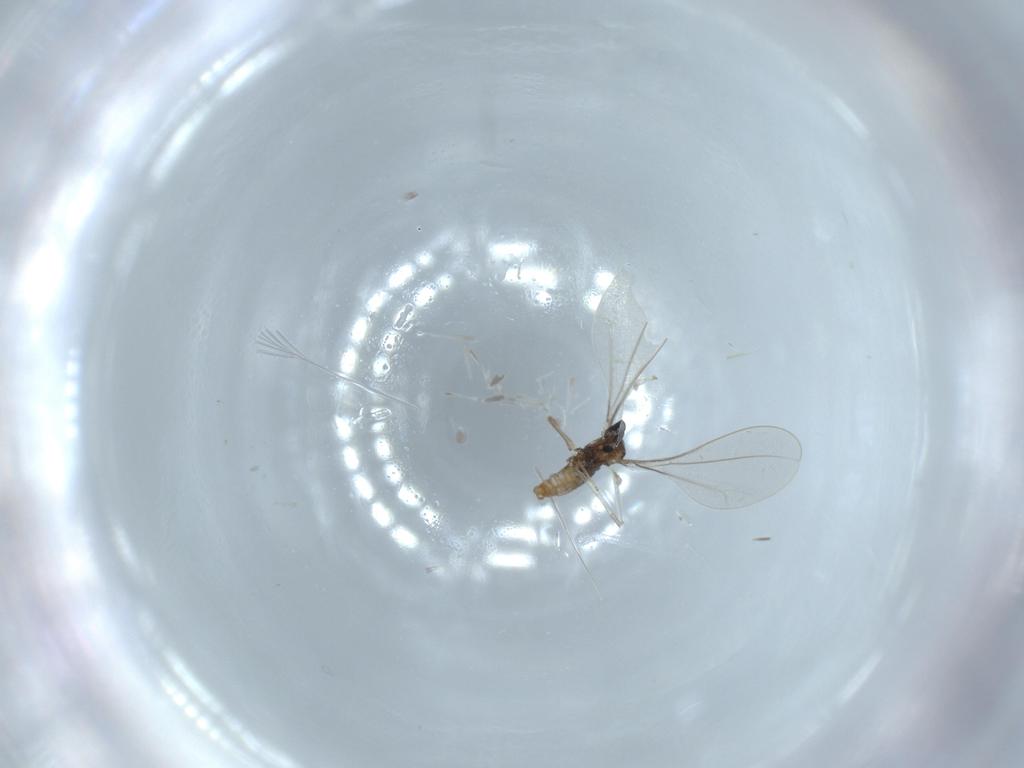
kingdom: Animalia
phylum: Arthropoda
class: Insecta
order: Diptera
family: Cecidomyiidae
